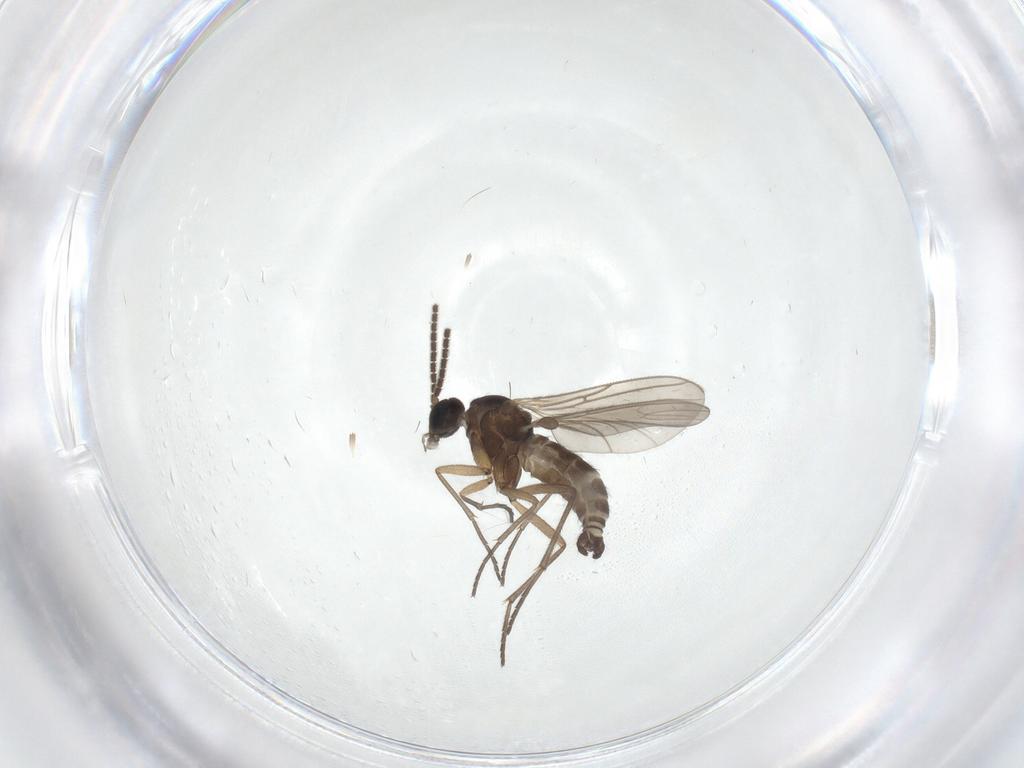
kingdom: Animalia
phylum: Arthropoda
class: Insecta
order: Diptera
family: Sciaridae
